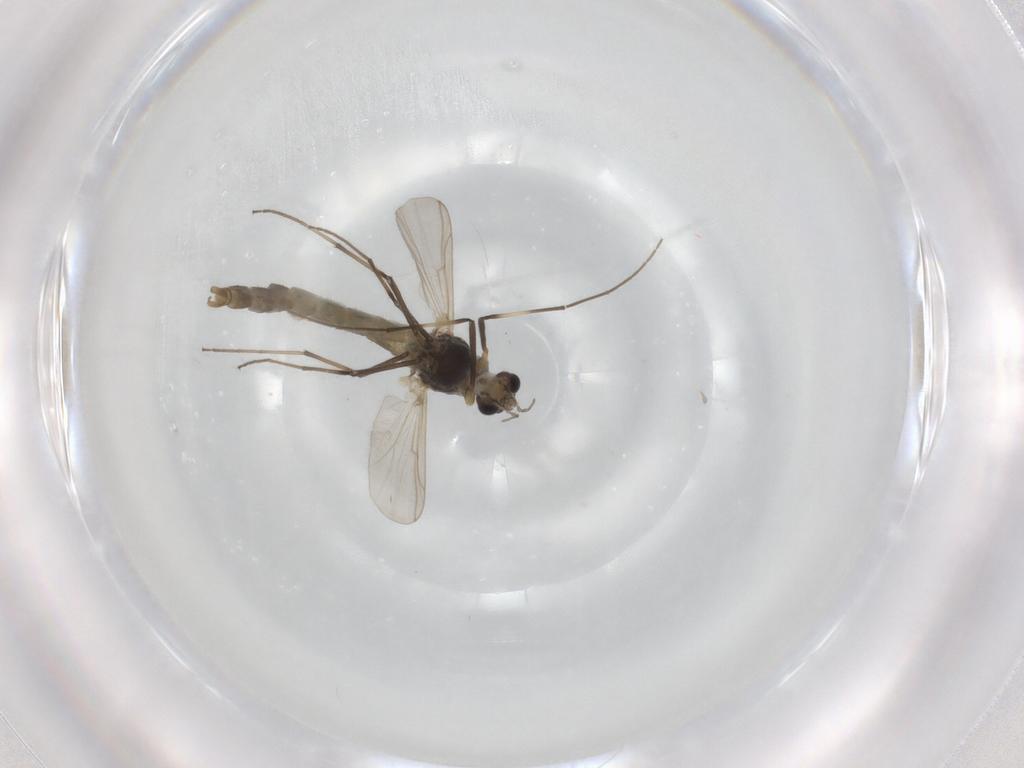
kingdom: Animalia
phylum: Arthropoda
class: Insecta
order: Diptera
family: Chironomidae
